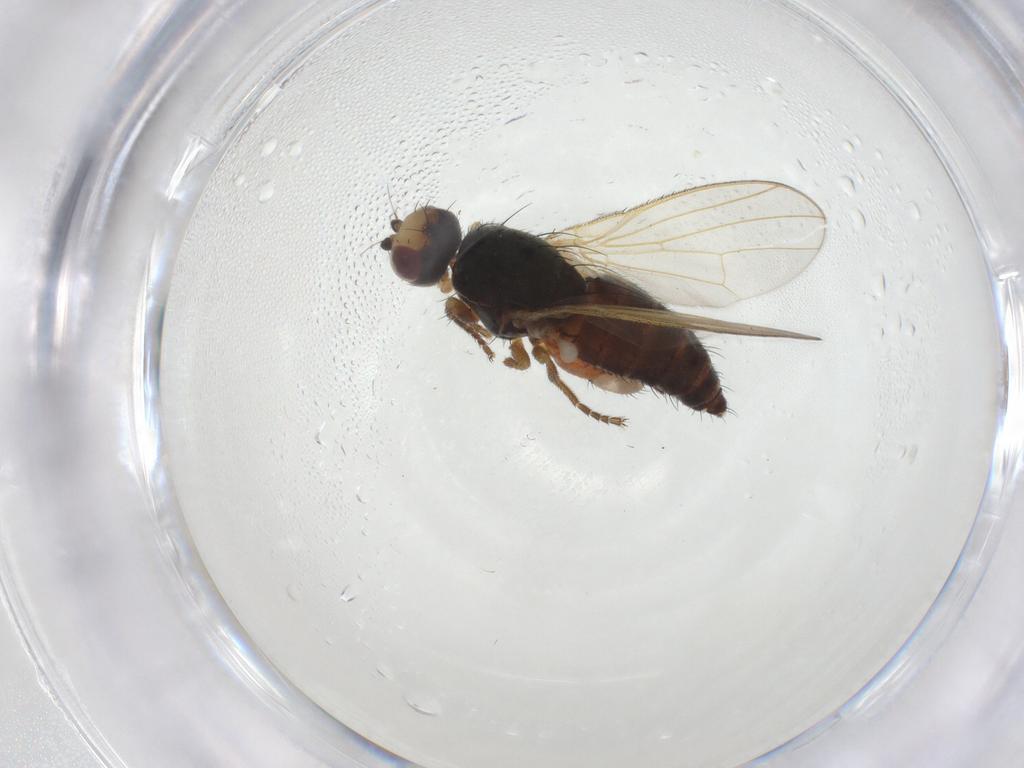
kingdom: Animalia
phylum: Arthropoda
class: Insecta
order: Diptera
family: Heleomyzidae
